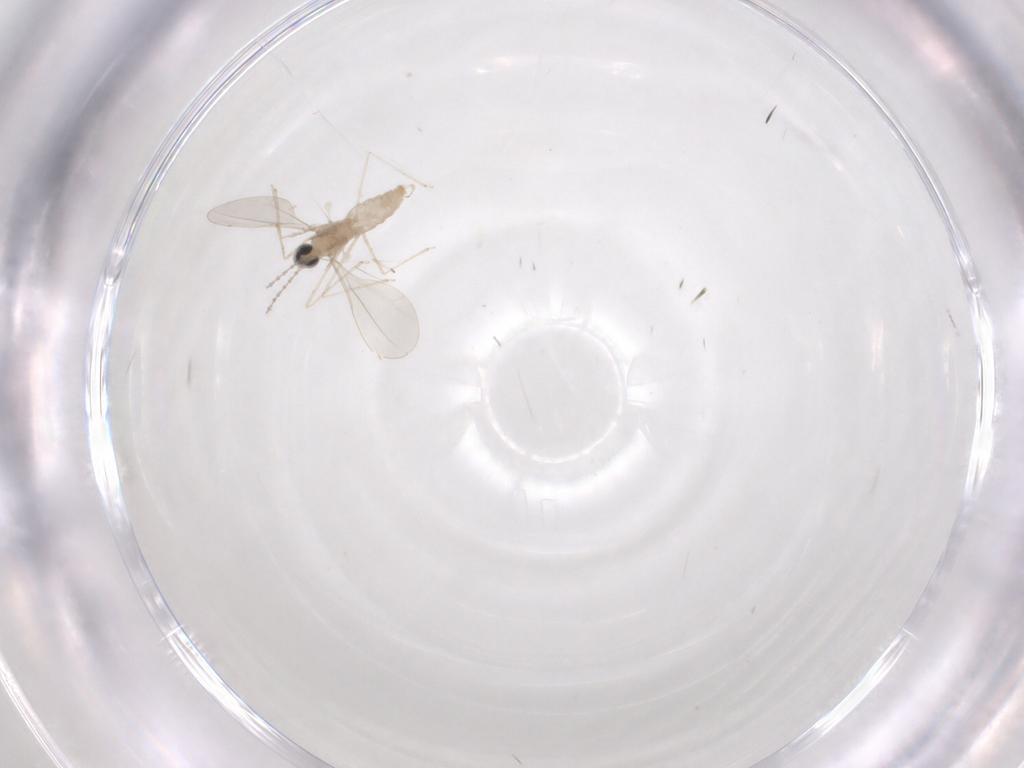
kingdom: Animalia
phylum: Arthropoda
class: Insecta
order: Diptera
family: Cecidomyiidae
